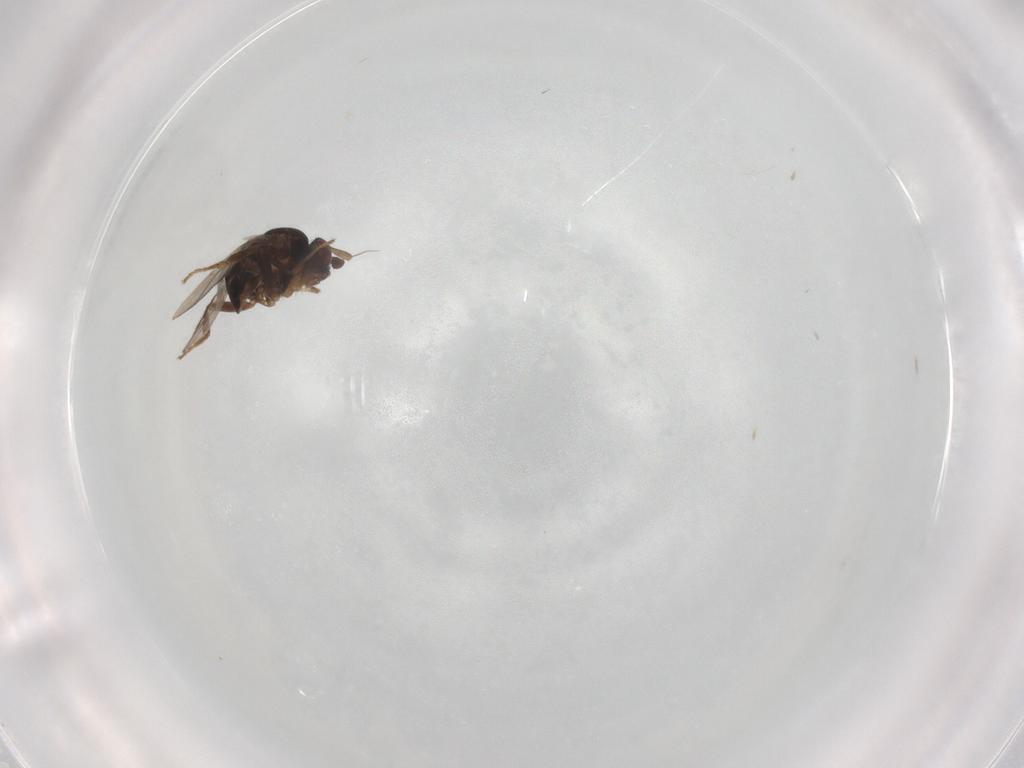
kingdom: Animalia
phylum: Arthropoda
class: Insecta
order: Diptera
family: Sphaeroceridae
